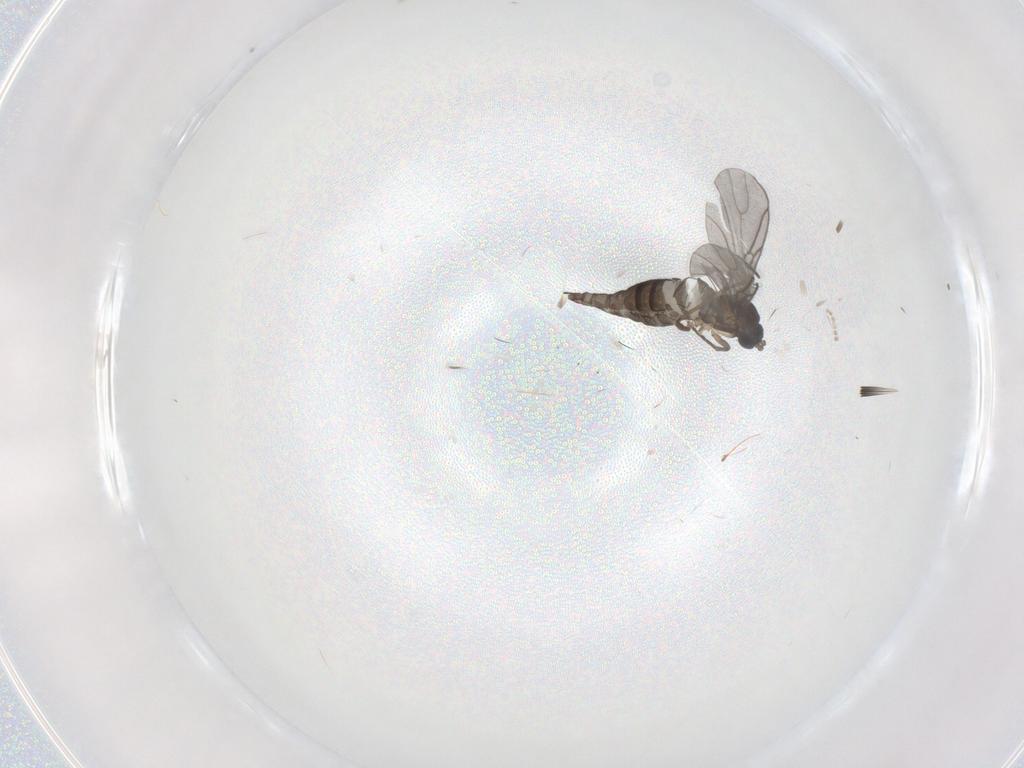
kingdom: Animalia
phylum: Arthropoda
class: Insecta
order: Diptera
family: Sciaridae
